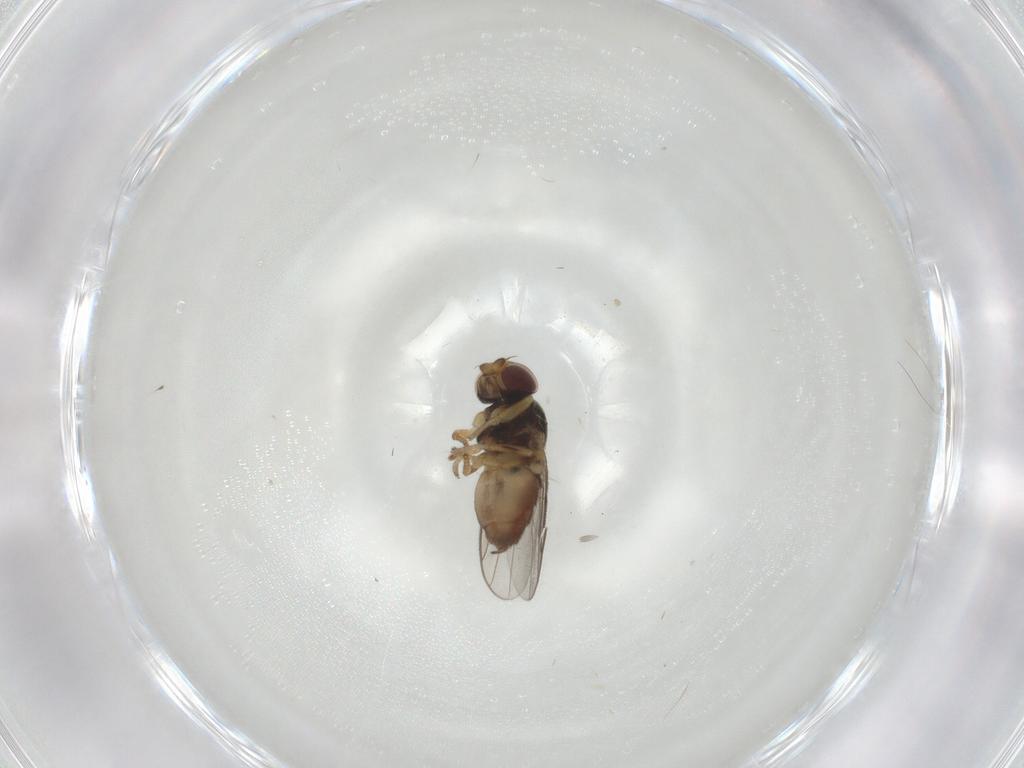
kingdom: Animalia
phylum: Arthropoda
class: Insecta
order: Diptera
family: Chloropidae
